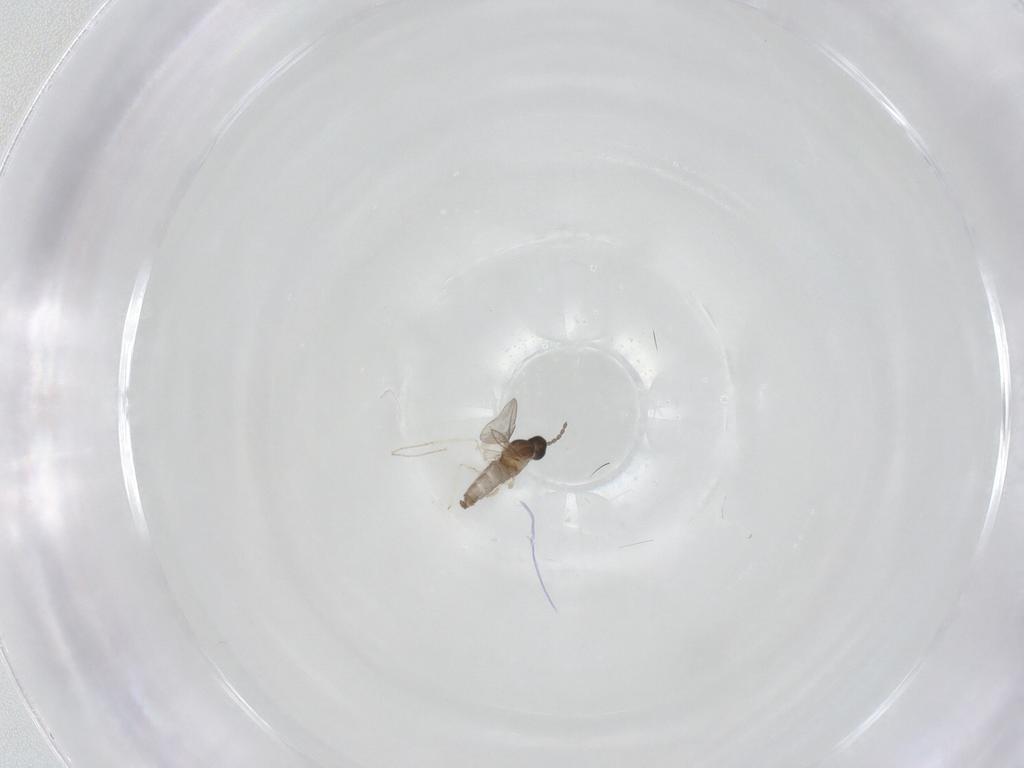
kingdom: Animalia
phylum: Arthropoda
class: Insecta
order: Diptera
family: Cecidomyiidae
